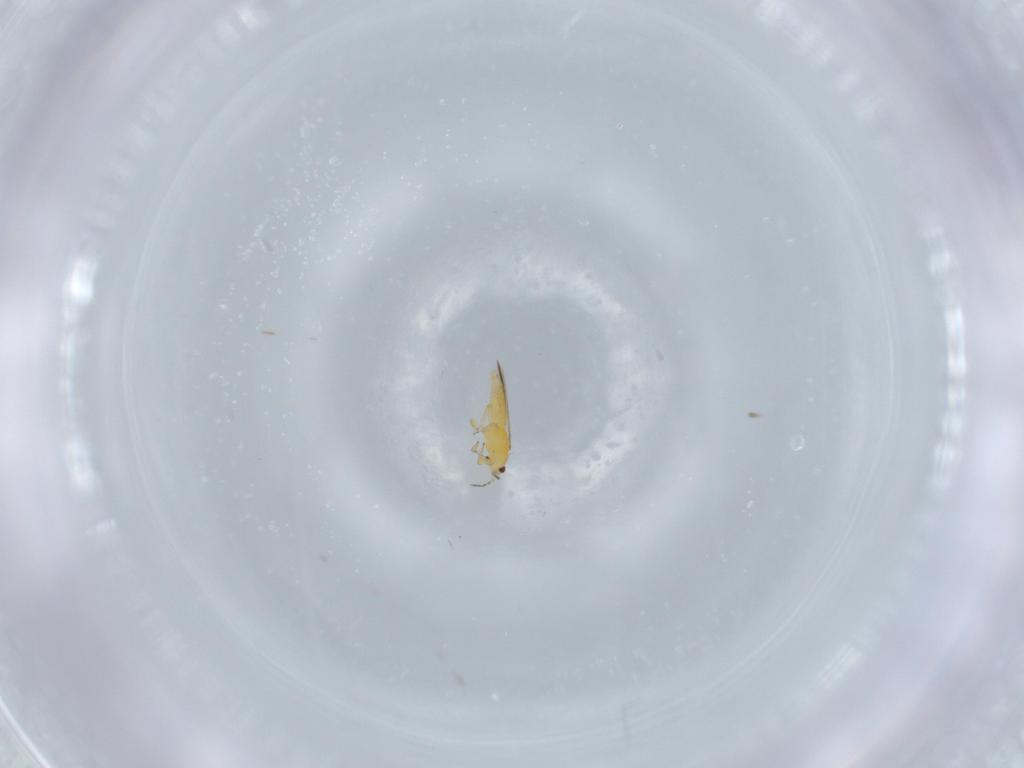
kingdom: Animalia
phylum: Arthropoda
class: Insecta
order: Thysanoptera
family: Thripidae
